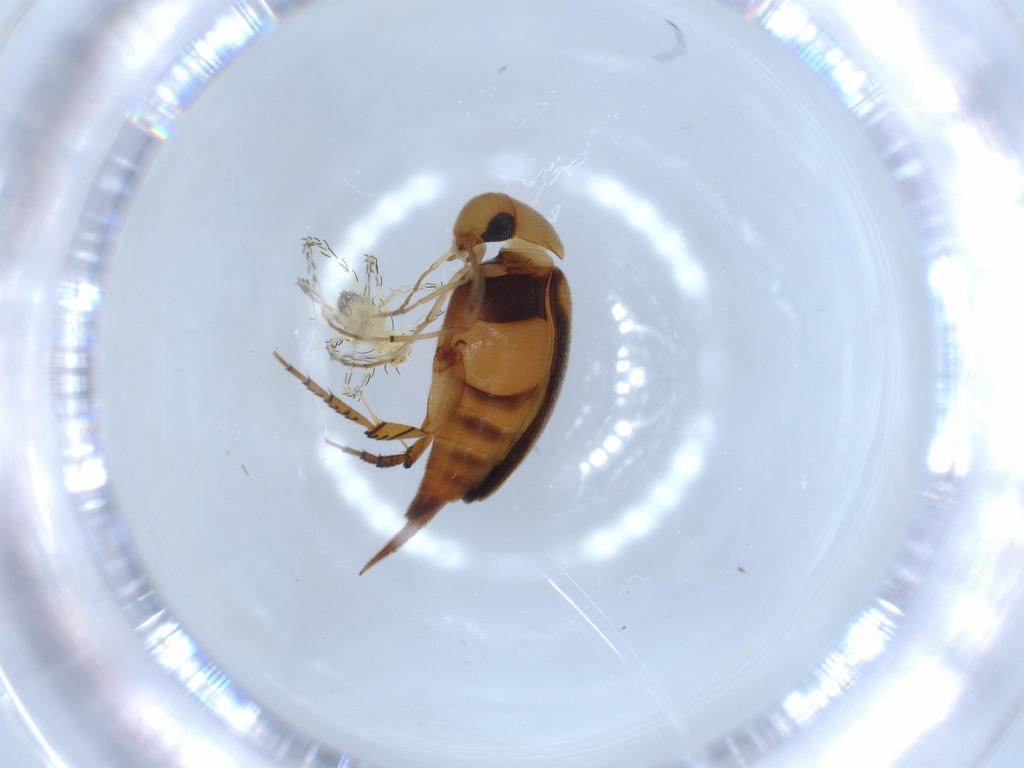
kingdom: Animalia
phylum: Arthropoda
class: Insecta
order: Coleoptera
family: Mordellidae
